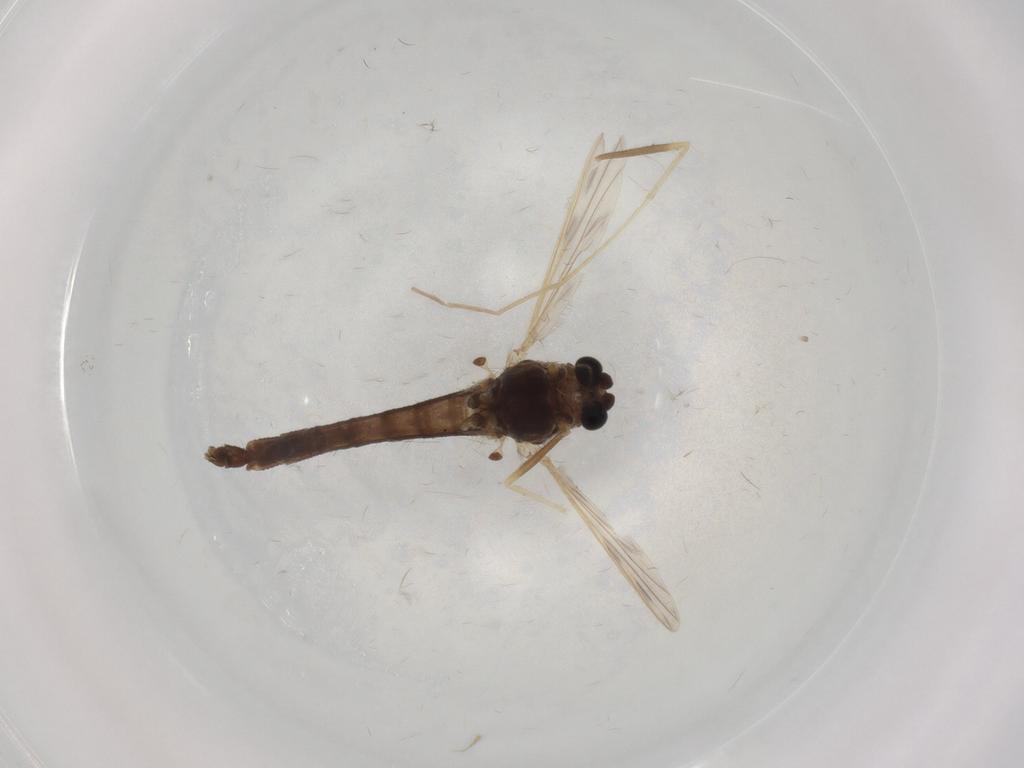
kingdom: Animalia
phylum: Arthropoda
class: Insecta
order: Diptera
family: Chironomidae
